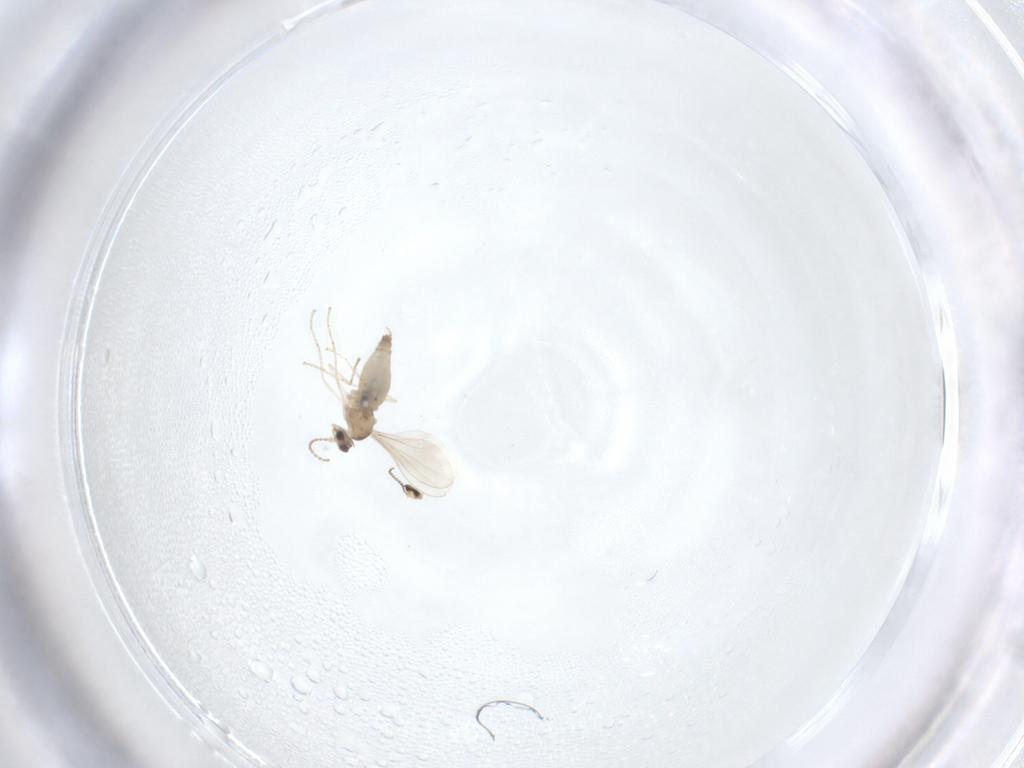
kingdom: Animalia
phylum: Arthropoda
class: Insecta
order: Diptera
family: Cecidomyiidae
